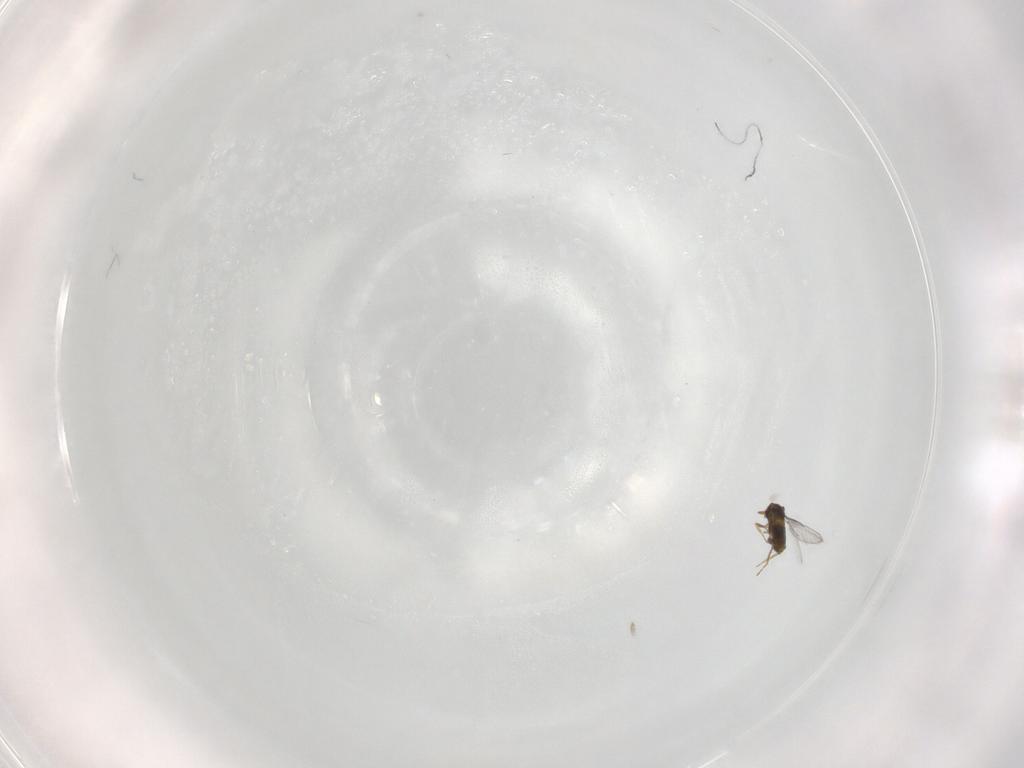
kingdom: Animalia
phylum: Arthropoda
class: Insecta
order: Hymenoptera
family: Trichogrammatidae
